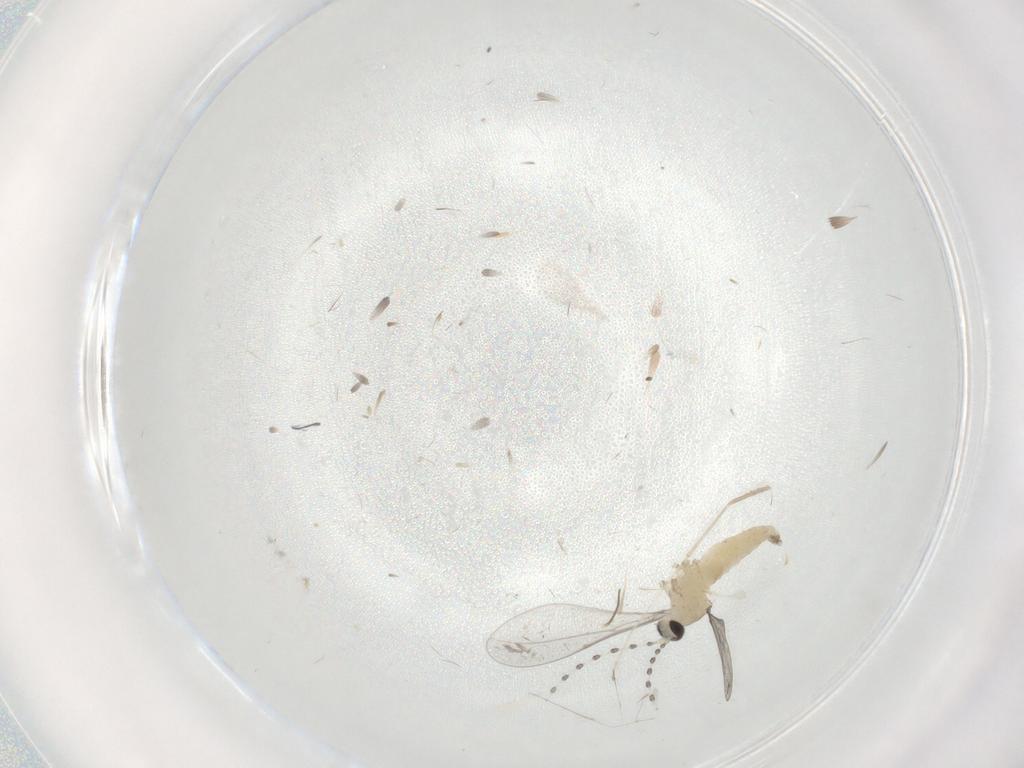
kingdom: Animalia
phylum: Arthropoda
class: Insecta
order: Diptera
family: Cecidomyiidae
